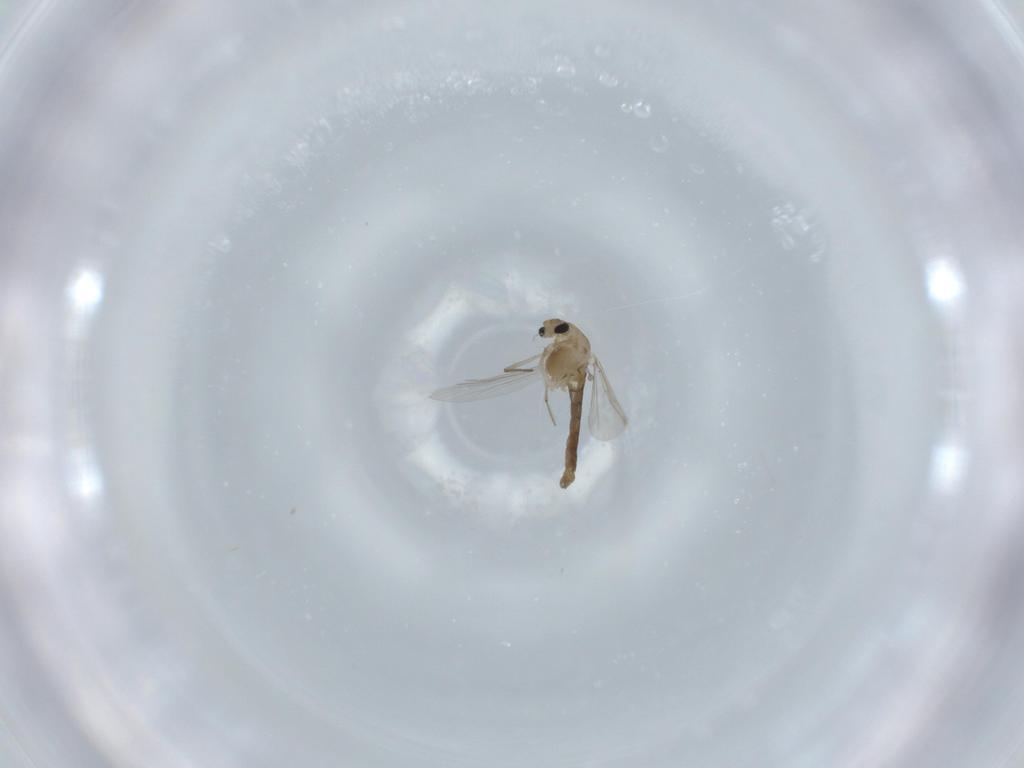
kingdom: Animalia
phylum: Arthropoda
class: Insecta
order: Diptera
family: Chironomidae
